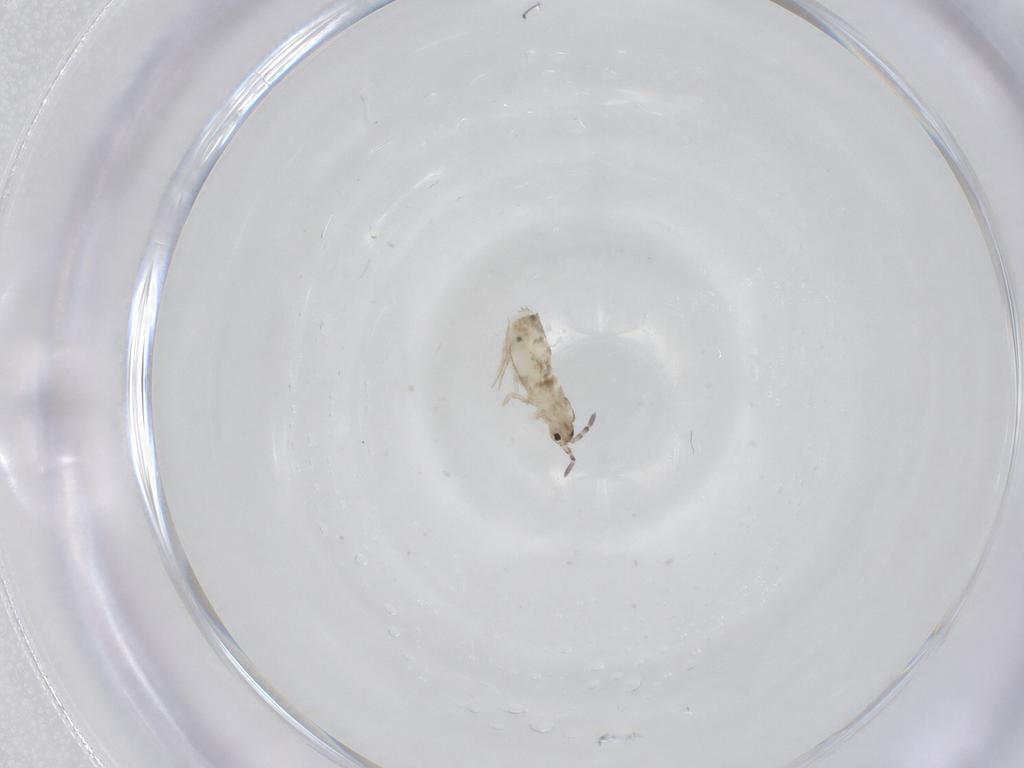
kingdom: Animalia
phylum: Arthropoda
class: Collembola
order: Entomobryomorpha
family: Entomobryidae
